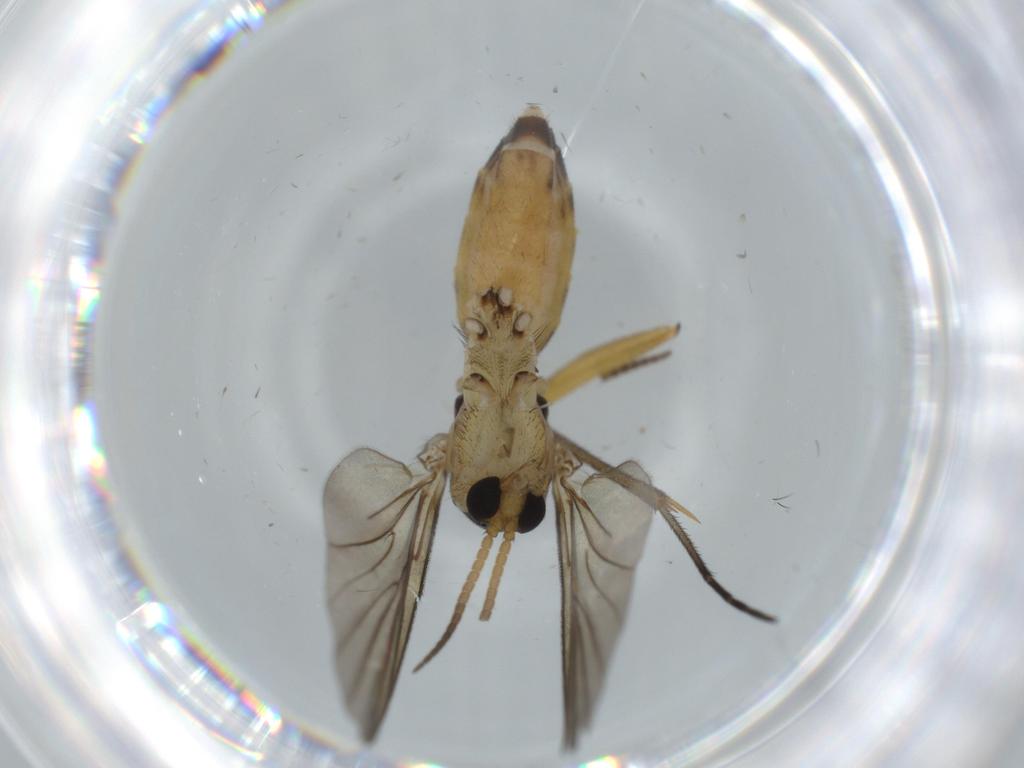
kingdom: Animalia
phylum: Arthropoda
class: Insecta
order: Diptera
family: Mycetophilidae
